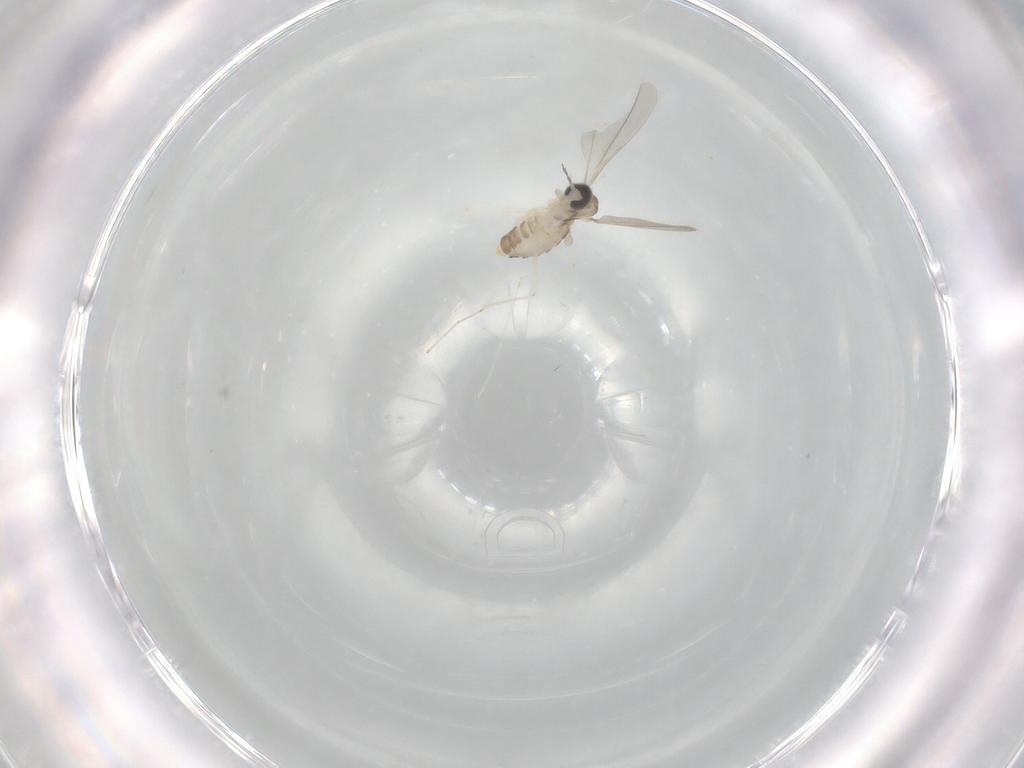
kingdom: Animalia
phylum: Arthropoda
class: Insecta
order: Diptera
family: Cecidomyiidae
